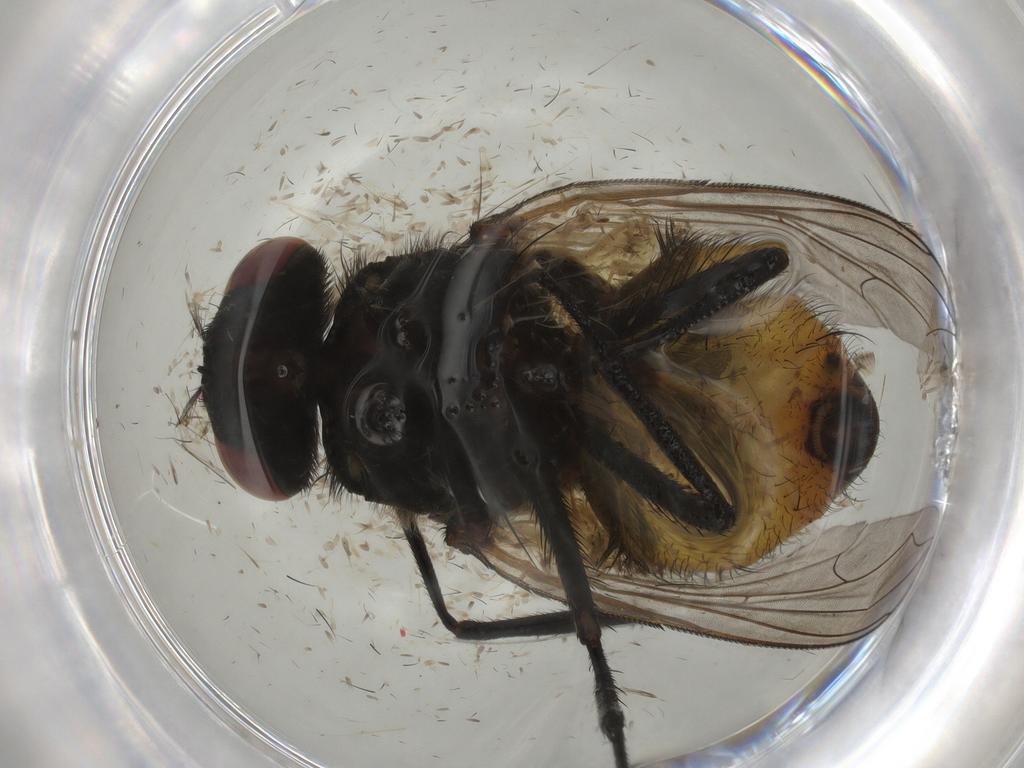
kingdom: Animalia
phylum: Arthropoda
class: Insecta
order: Diptera
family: Muscidae
